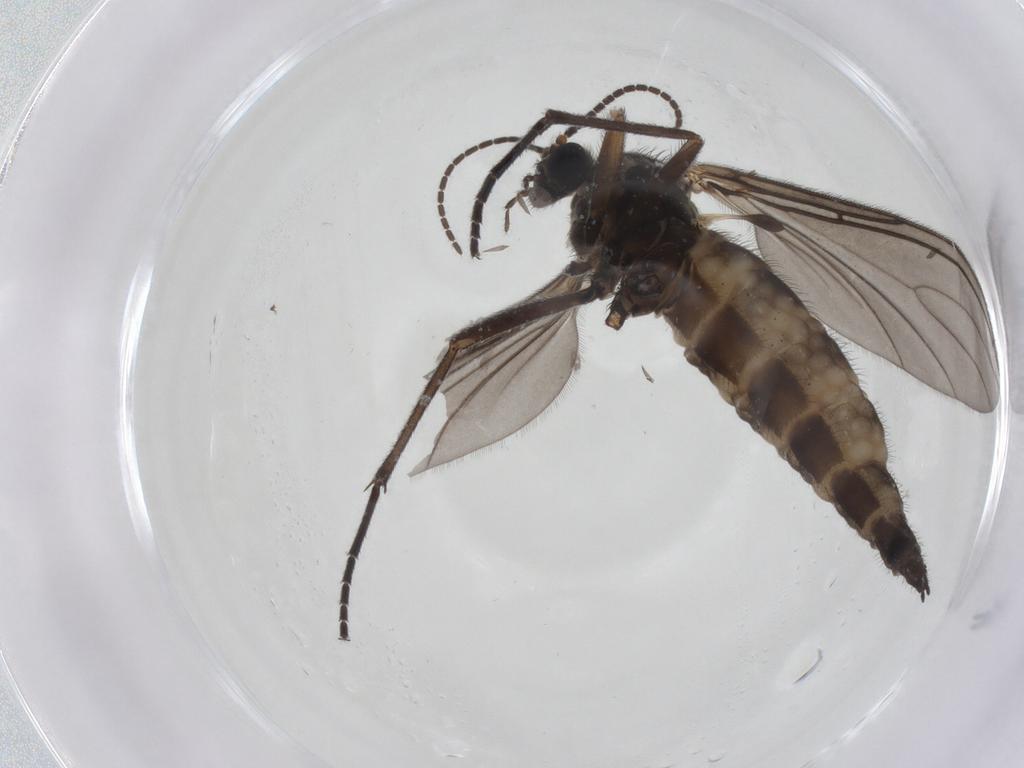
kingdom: Animalia
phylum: Arthropoda
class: Insecta
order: Diptera
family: Sciaridae
